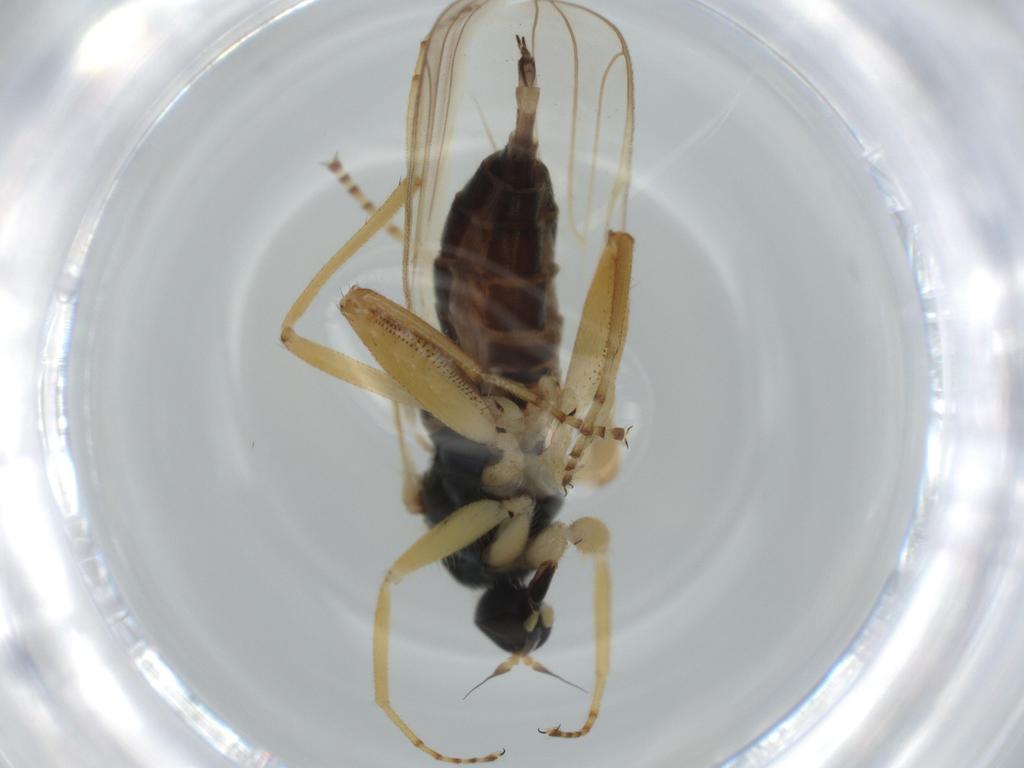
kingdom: Animalia
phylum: Arthropoda
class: Insecta
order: Diptera
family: Hybotidae
